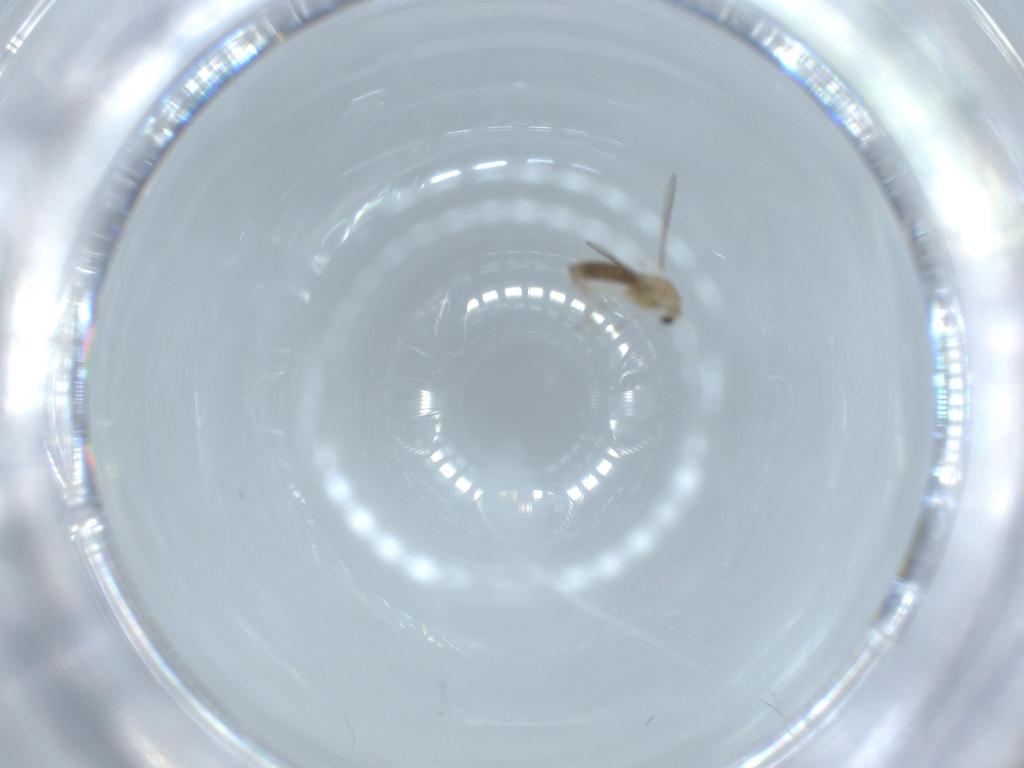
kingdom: Animalia
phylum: Arthropoda
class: Insecta
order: Diptera
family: Chironomidae
